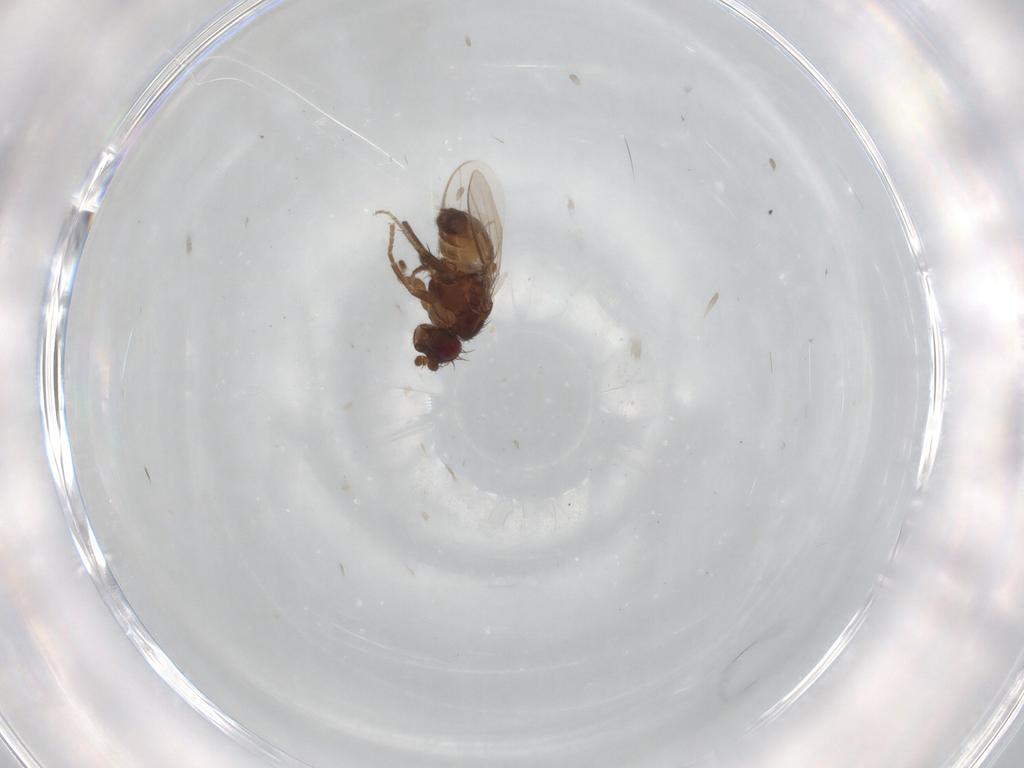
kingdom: Animalia
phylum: Arthropoda
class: Insecta
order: Diptera
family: Sphaeroceridae
